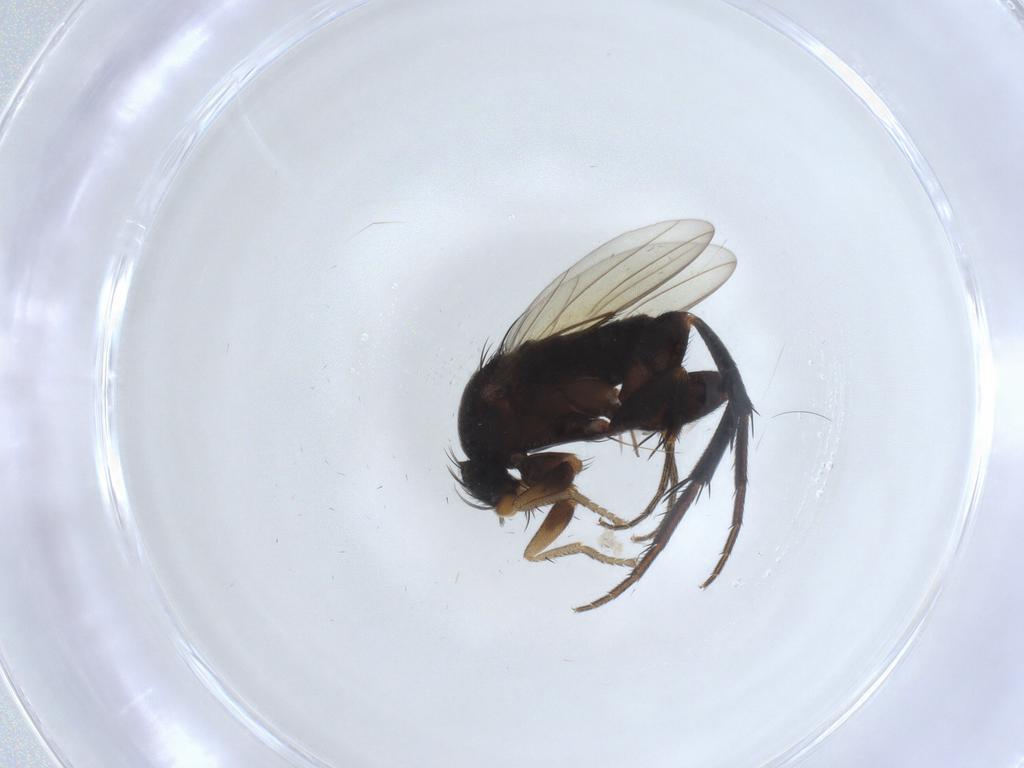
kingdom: Animalia
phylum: Arthropoda
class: Insecta
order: Diptera
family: Phoridae
